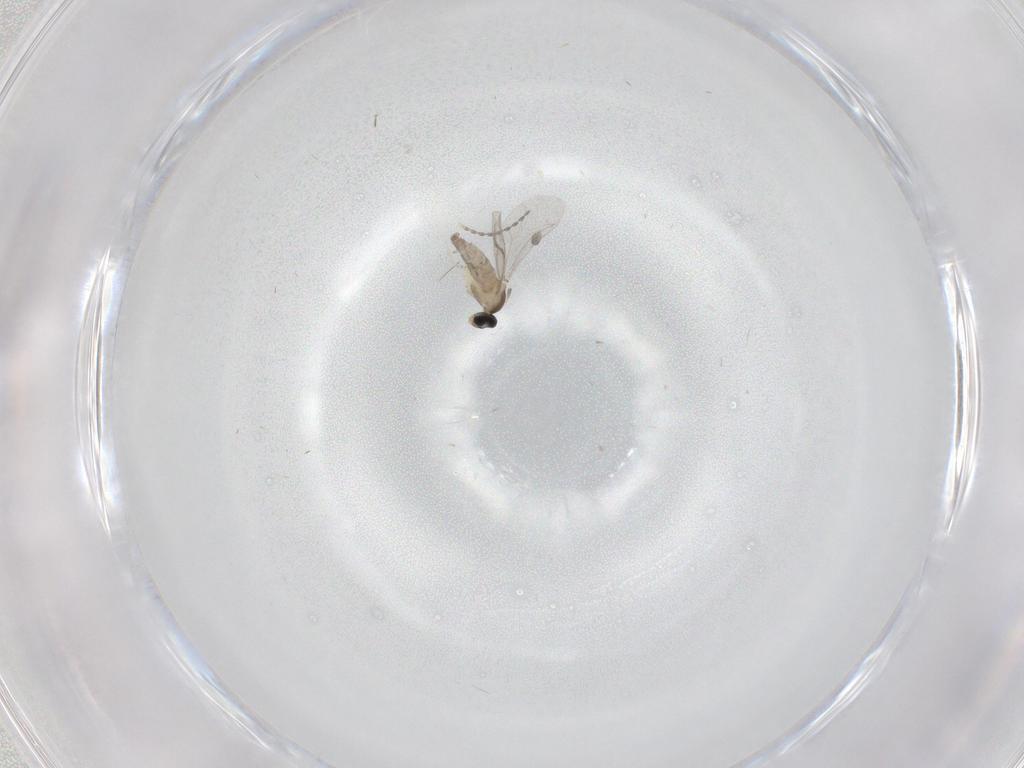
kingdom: Animalia
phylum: Arthropoda
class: Insecta
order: Diptera
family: Cecidomyiidae
